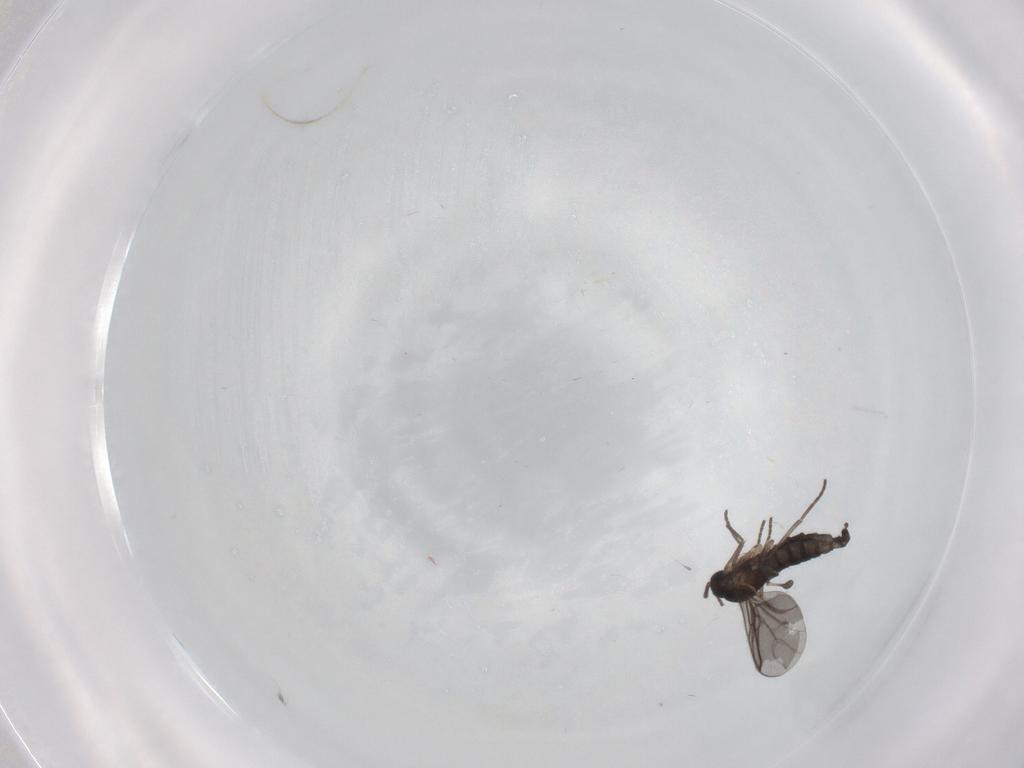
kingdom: Animalia
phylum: Arthropoda
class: Insecta
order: Diptera
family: Sciaridae
